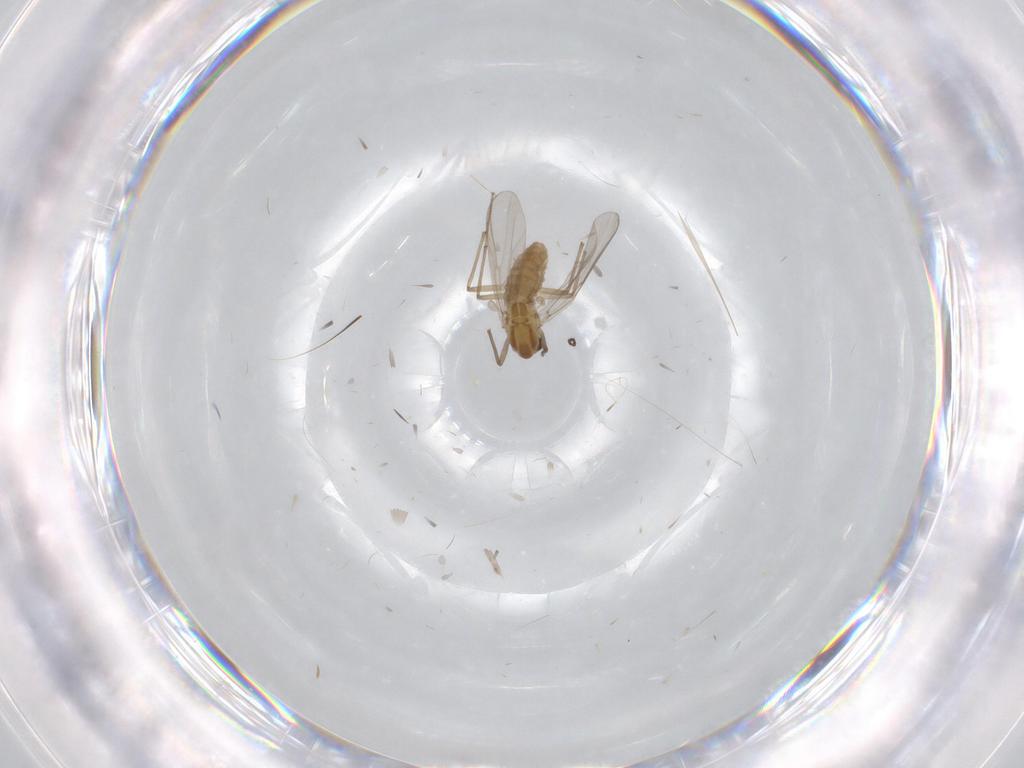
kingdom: Animalia
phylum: Arthropoda
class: Insecta
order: Diptera
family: Chironomidae
